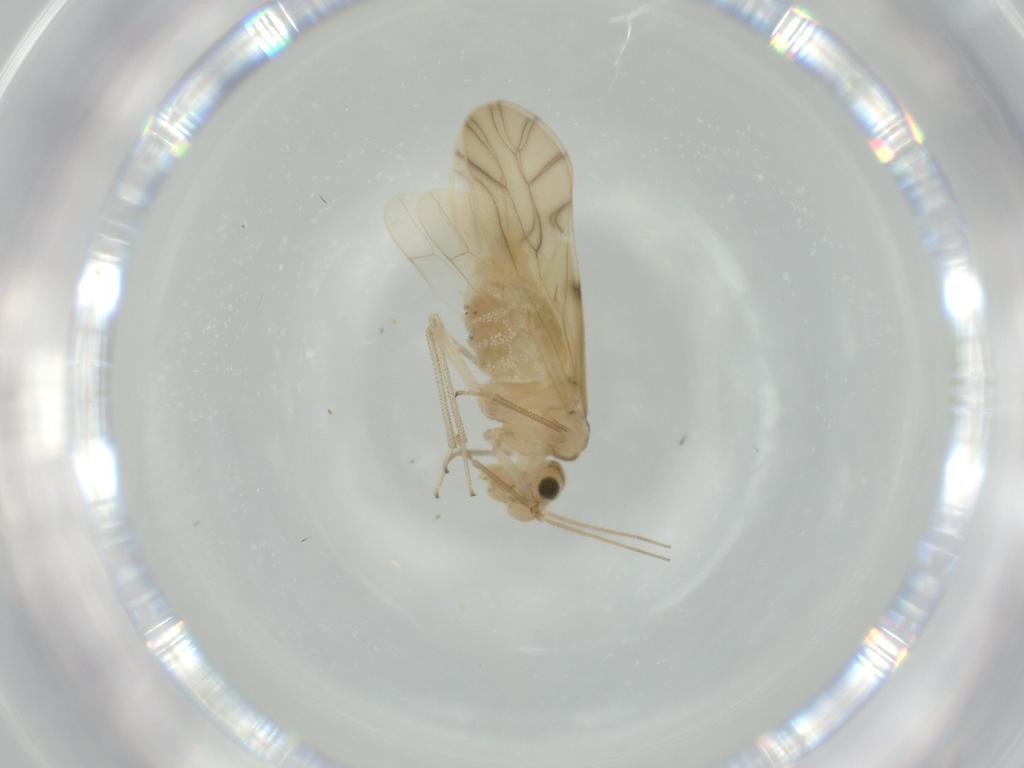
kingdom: Animalia
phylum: Arthropoda
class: Insecta
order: Psocodea
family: Caeciliusidae
